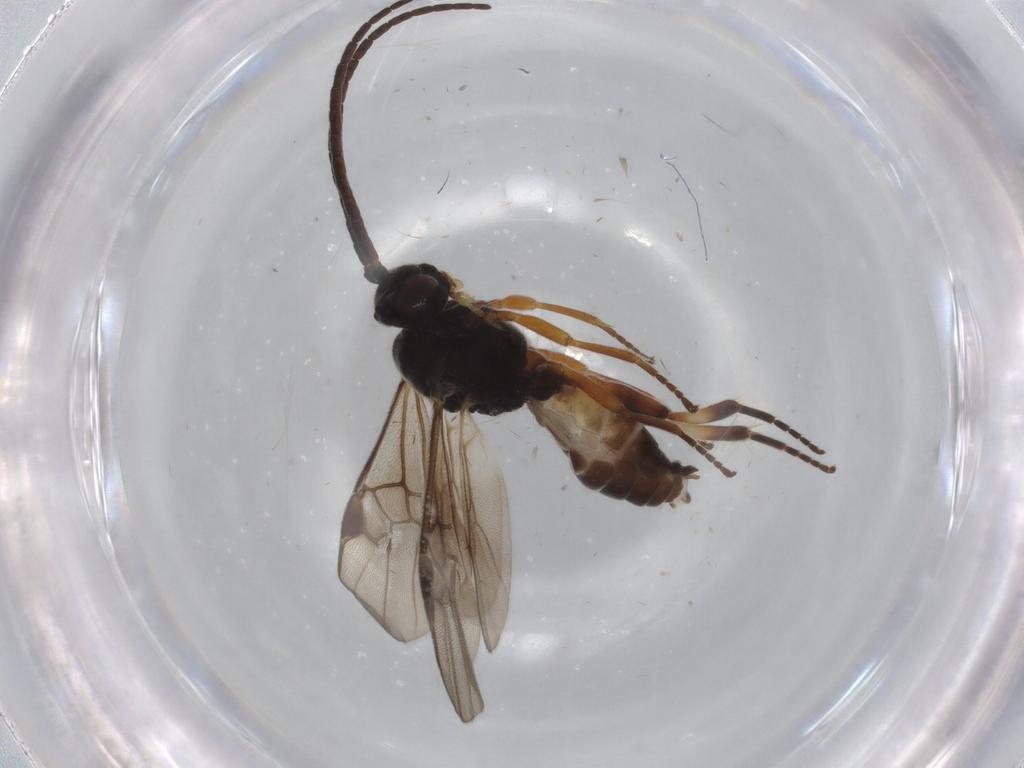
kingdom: Animalia
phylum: Arthropoda
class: Insecta
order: Hymenoptera
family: Braconidae
